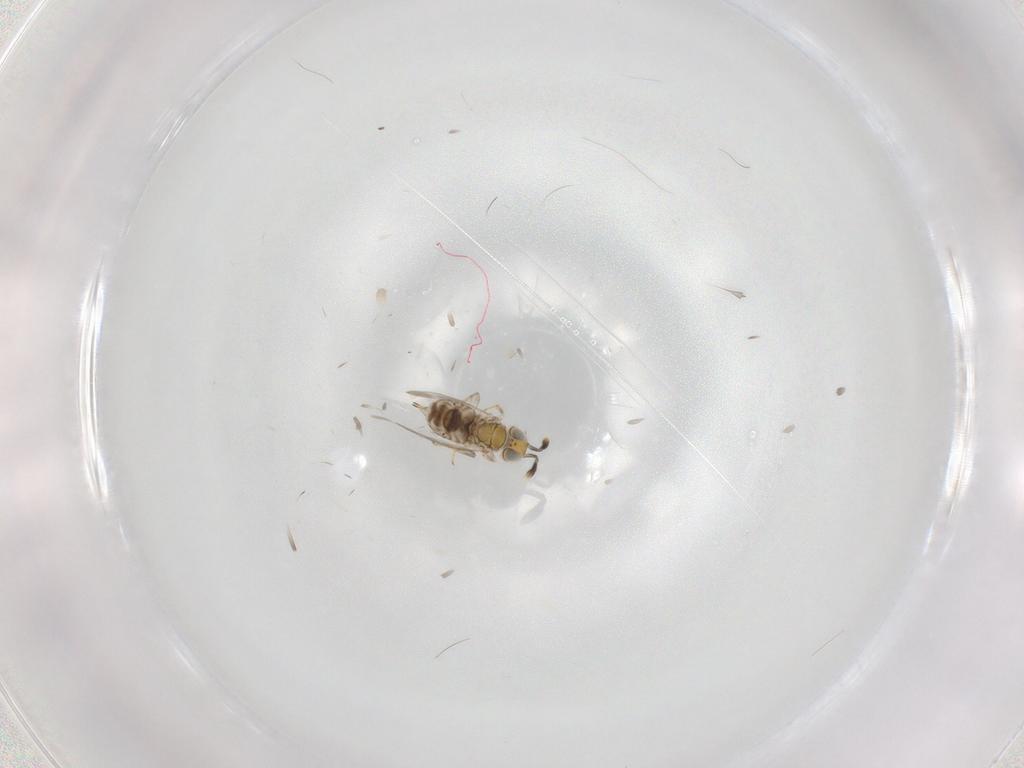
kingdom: Animalia
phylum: Arthropoda
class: Insecta
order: Hymenoptera
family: Encyrtidae
